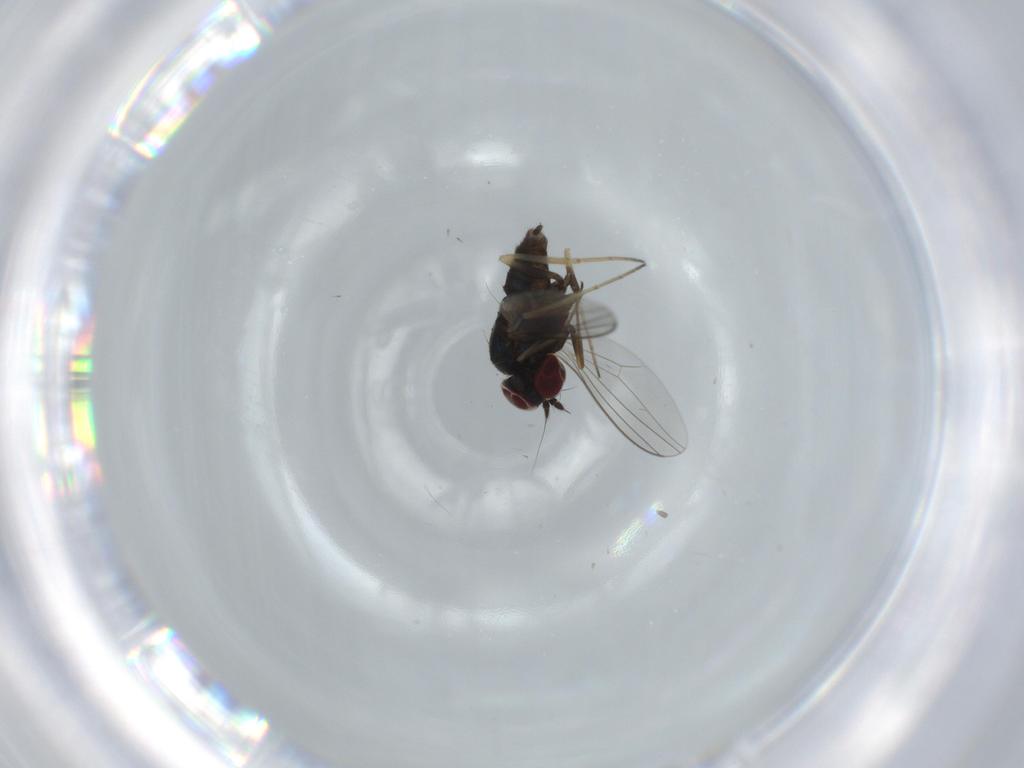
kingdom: Animalia
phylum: Arthropoda
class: Insecta
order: Diptera
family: Dolichopodidae
